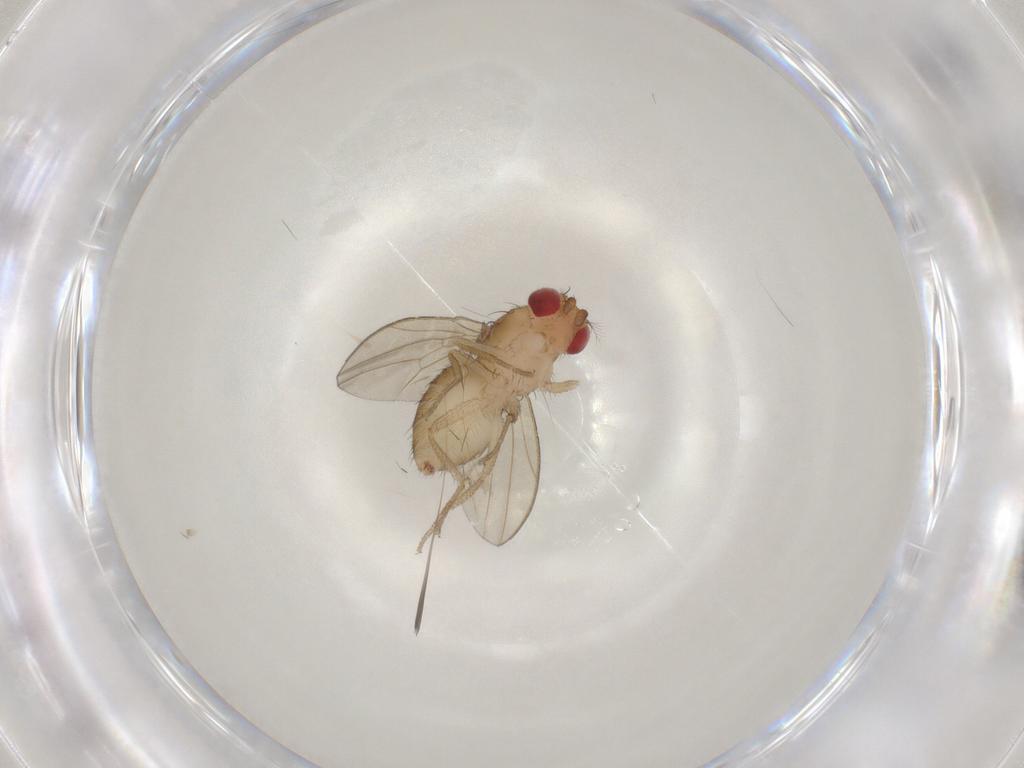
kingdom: Animalia
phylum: Arthropoda
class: Insecta
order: Diptera
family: Drosophilidae
